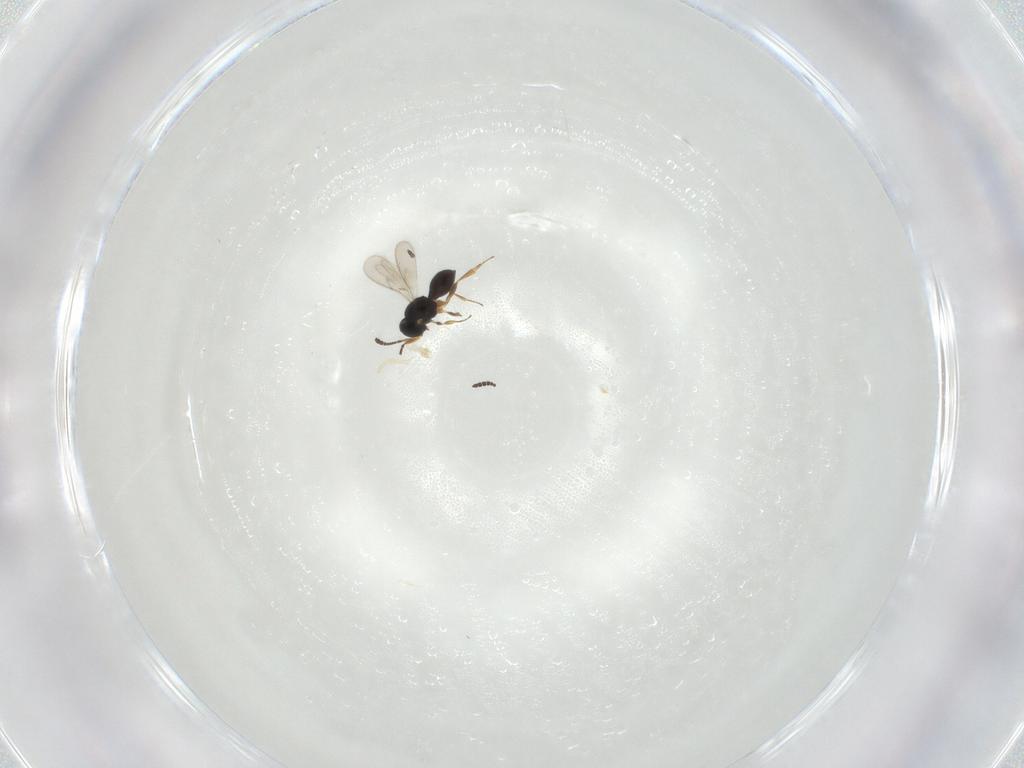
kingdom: Animalia
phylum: Arthropoda
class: Insecta
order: Hymenoptera
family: Scelionidae
